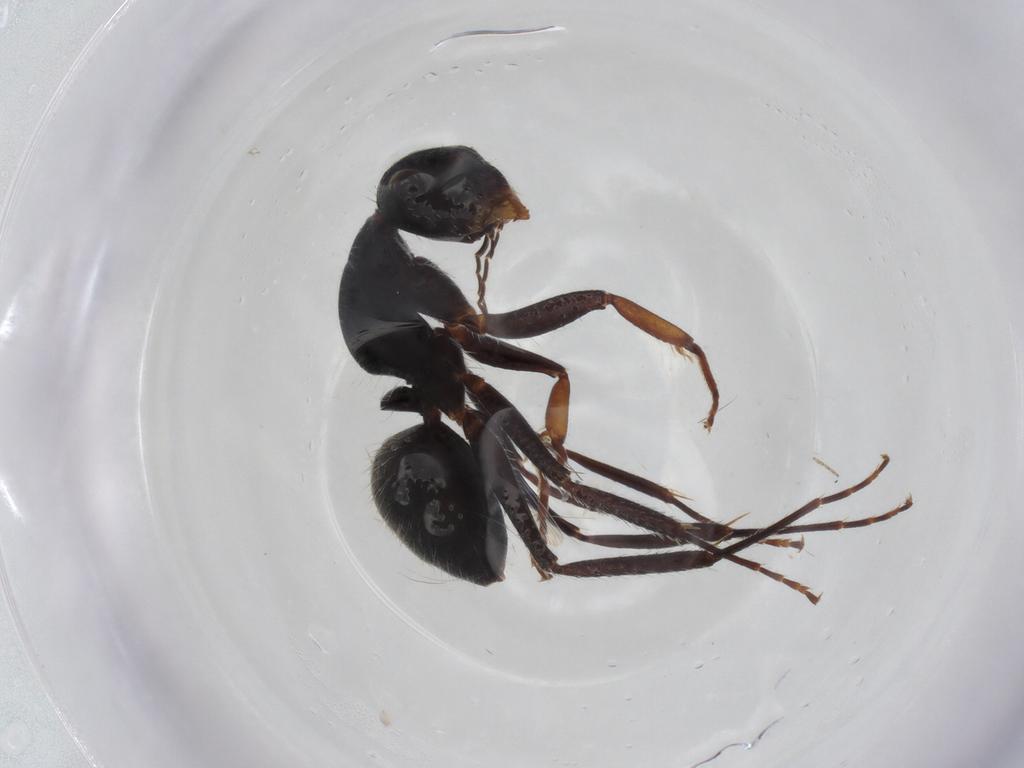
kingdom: Animalia
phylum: Arthropoda
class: Insecta
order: Hymenoptera
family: Formicidae
